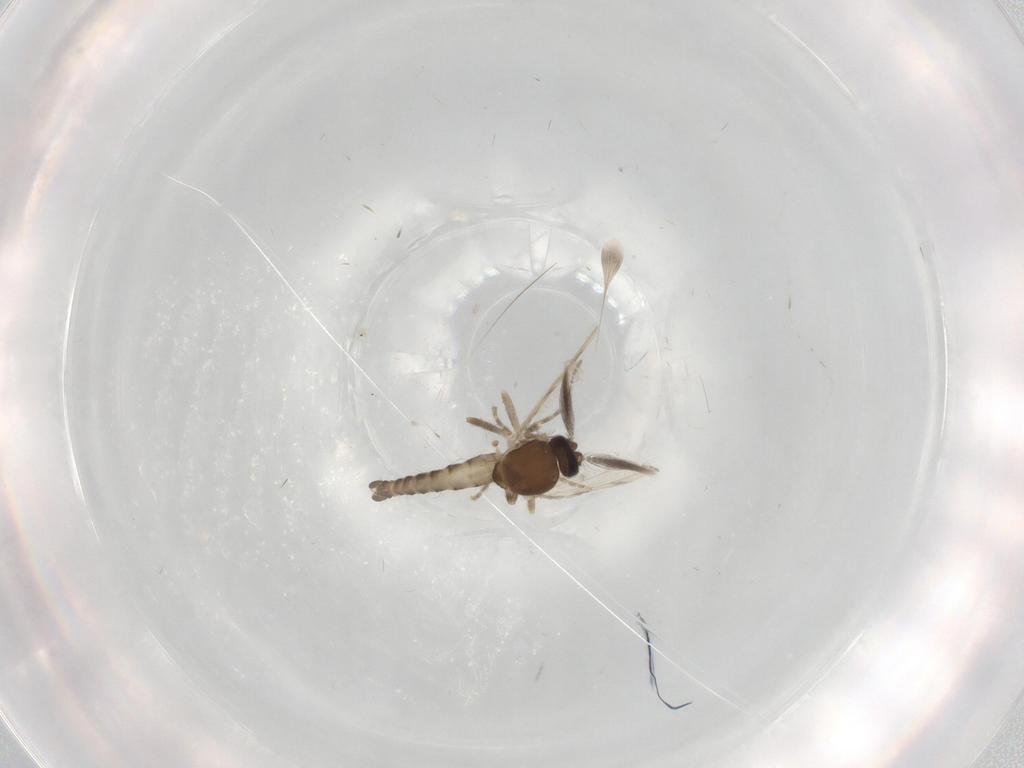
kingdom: Animalia
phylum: Arthropoda
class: Insecta
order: Diptera
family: Ceratopogonidae
